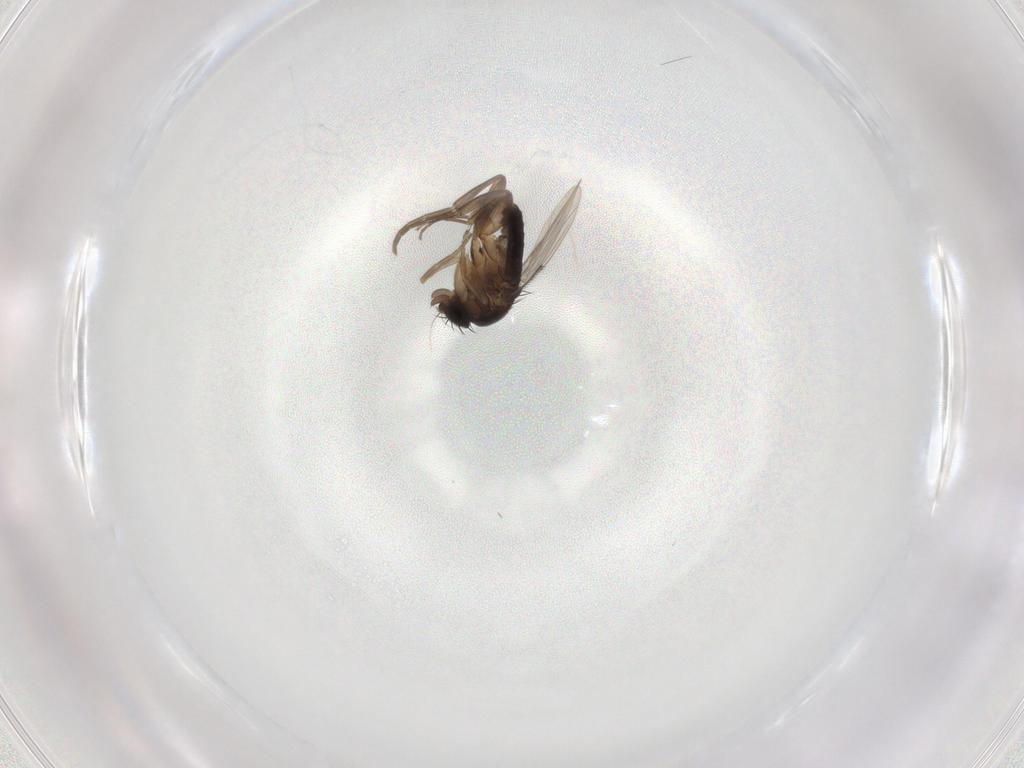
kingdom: Animalia
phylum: Arthropoda
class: Insecta
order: Diptera
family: Phoridae
